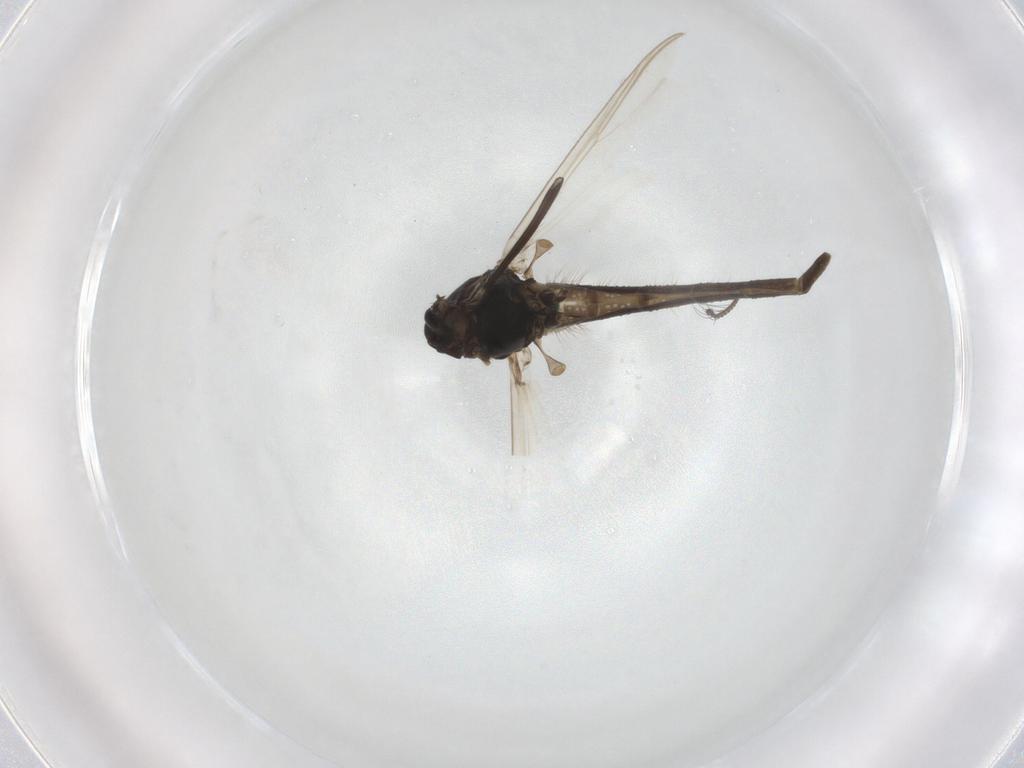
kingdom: Animalia
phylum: Arthropoda
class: Insecta
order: Diptera
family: Chironomidae
